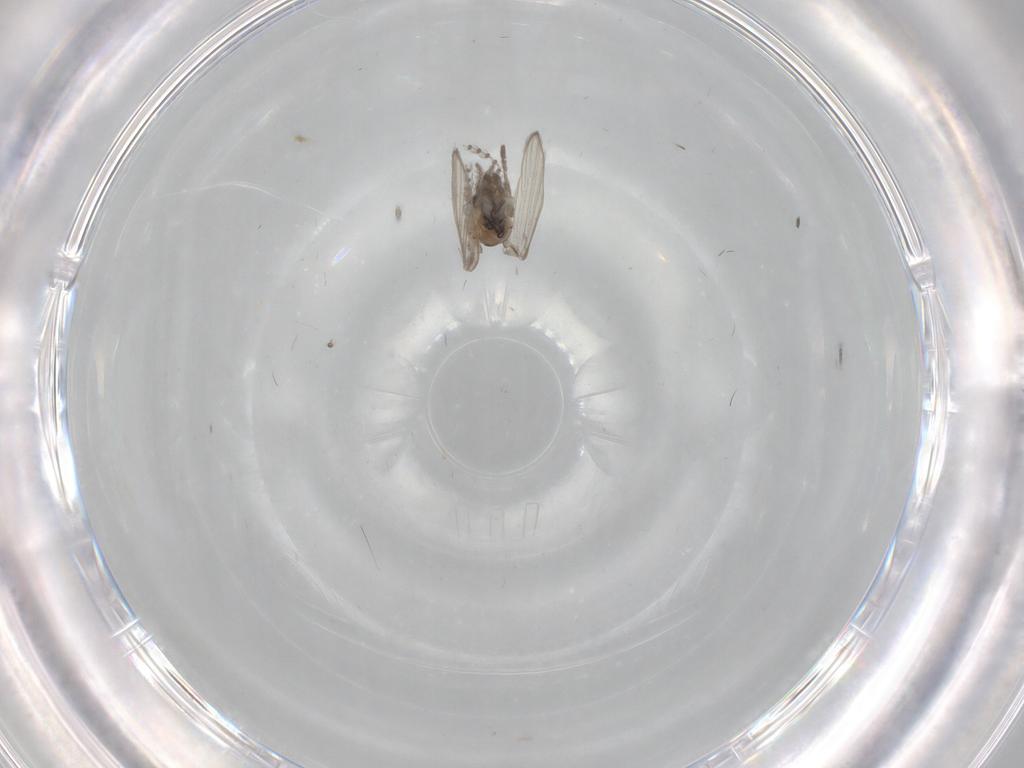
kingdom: Animalia
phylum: Arthropoda
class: Insecta
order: Diptera
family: Psychodidae
